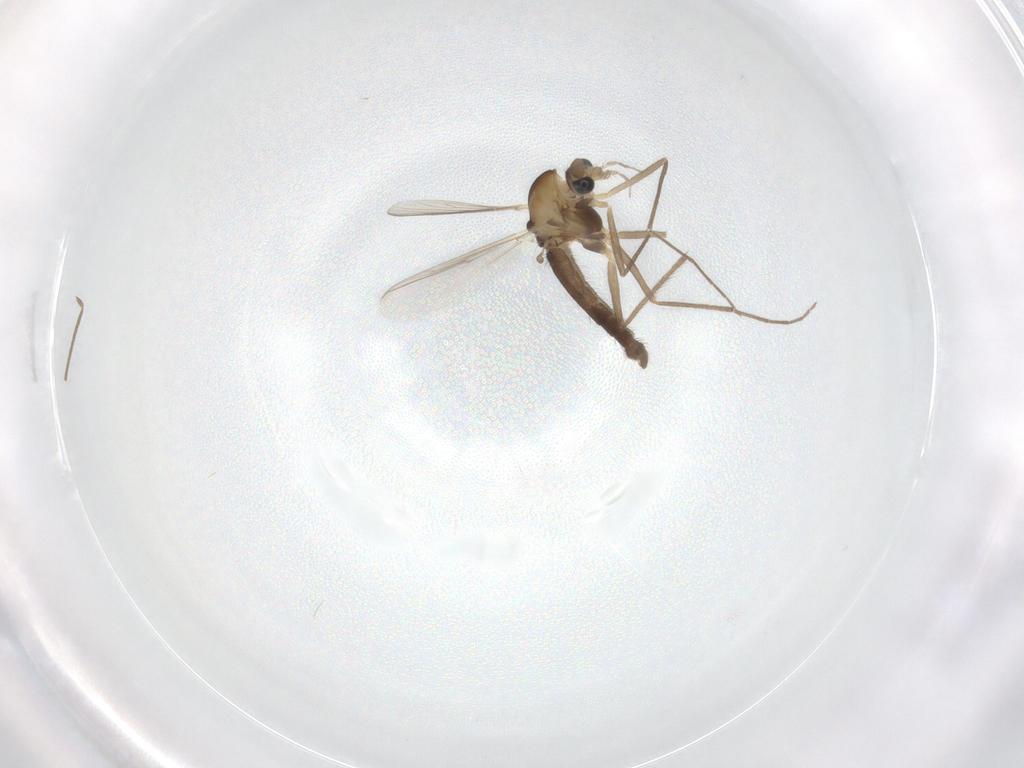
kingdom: Animalia
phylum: Arthropoda
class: Insecta
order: Diptera
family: Chironomidae
